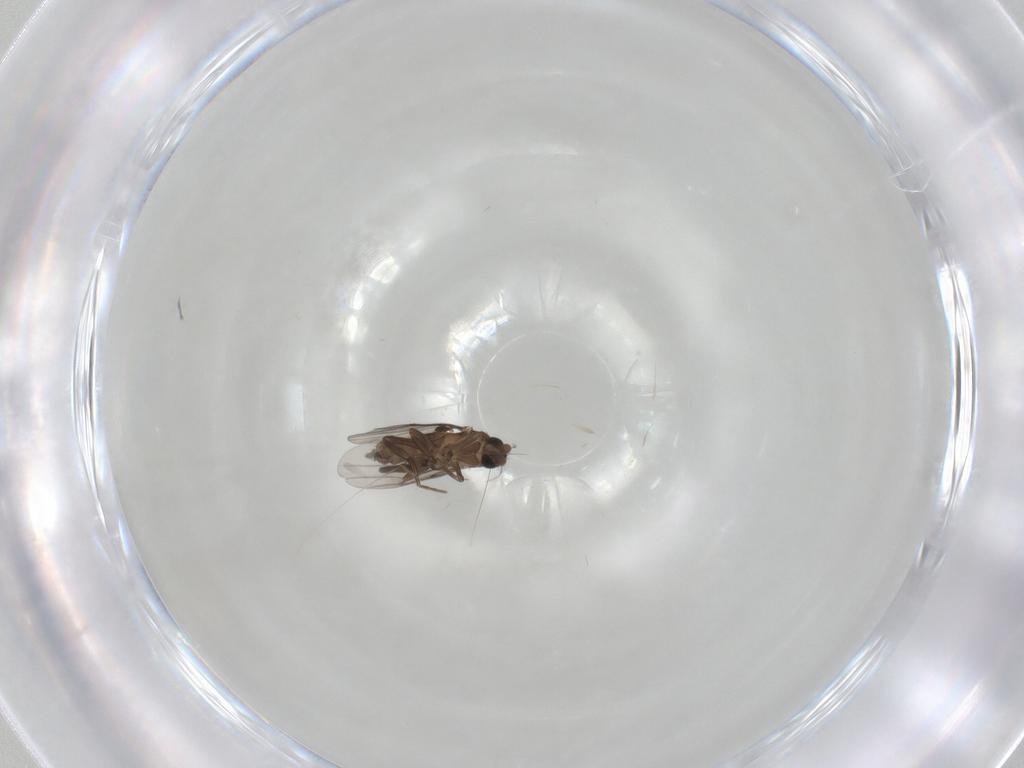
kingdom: Animalia
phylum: Arthropoda
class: Insecta
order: Diptera
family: Phoridae
